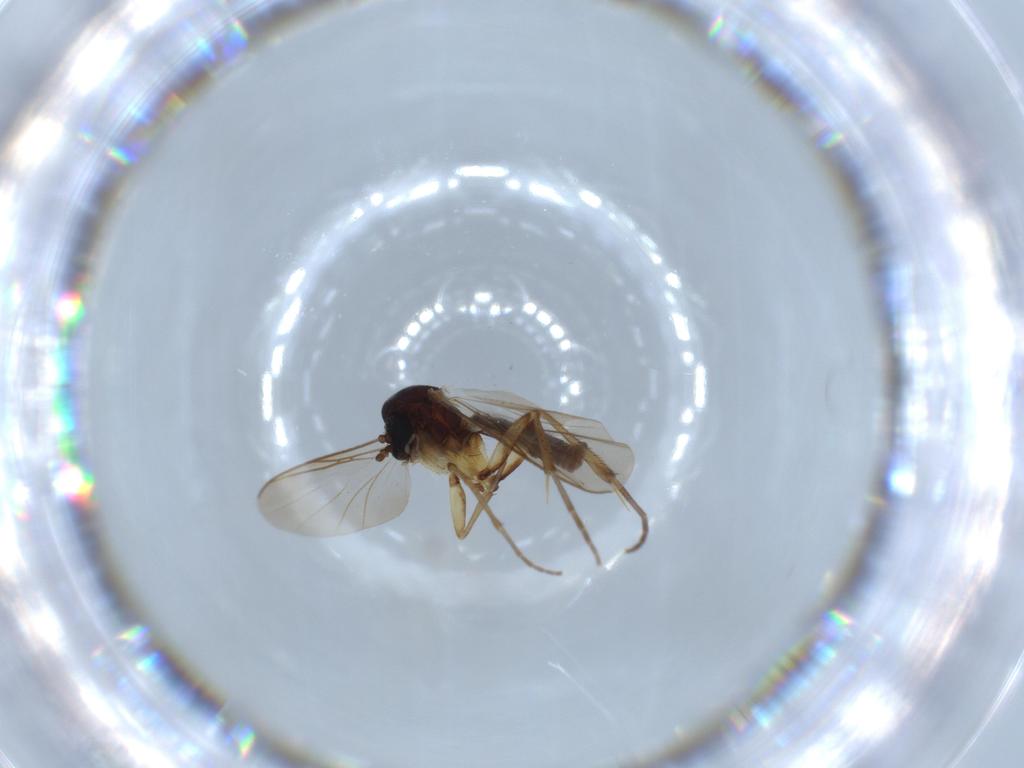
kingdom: Animalia
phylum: Arthropoda
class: Insecta
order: Diptera
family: Mycetophilidae
